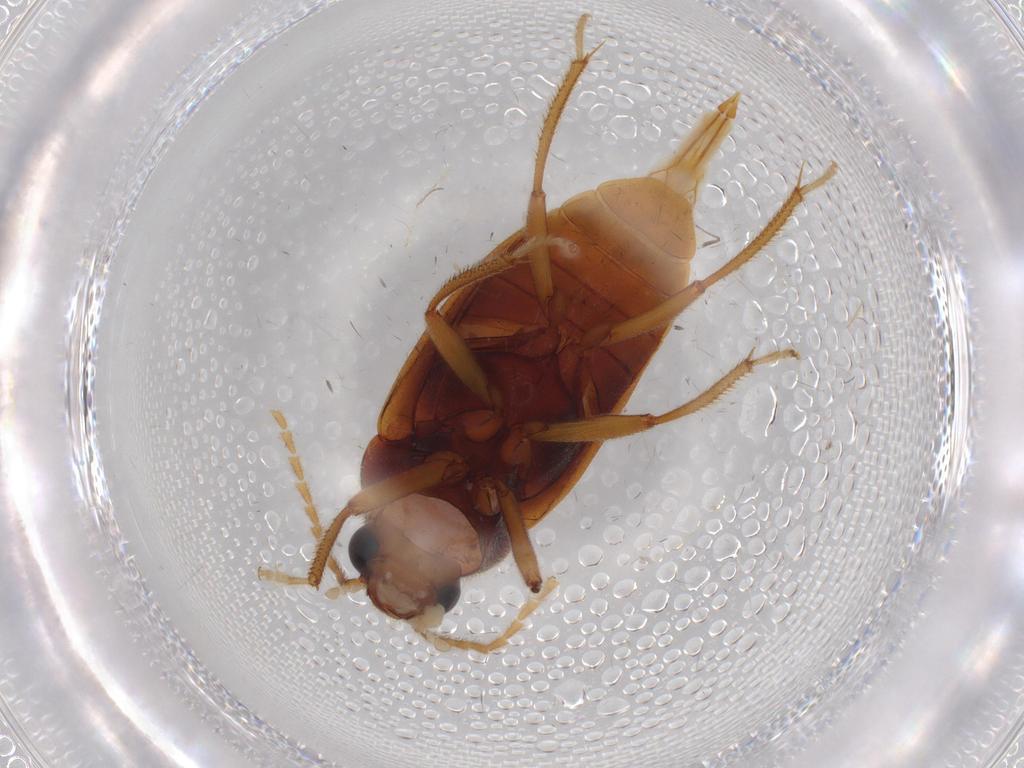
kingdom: Animalia
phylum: Arthropoda
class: Insecta
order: Coleoptera
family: Ptilodactylidae
